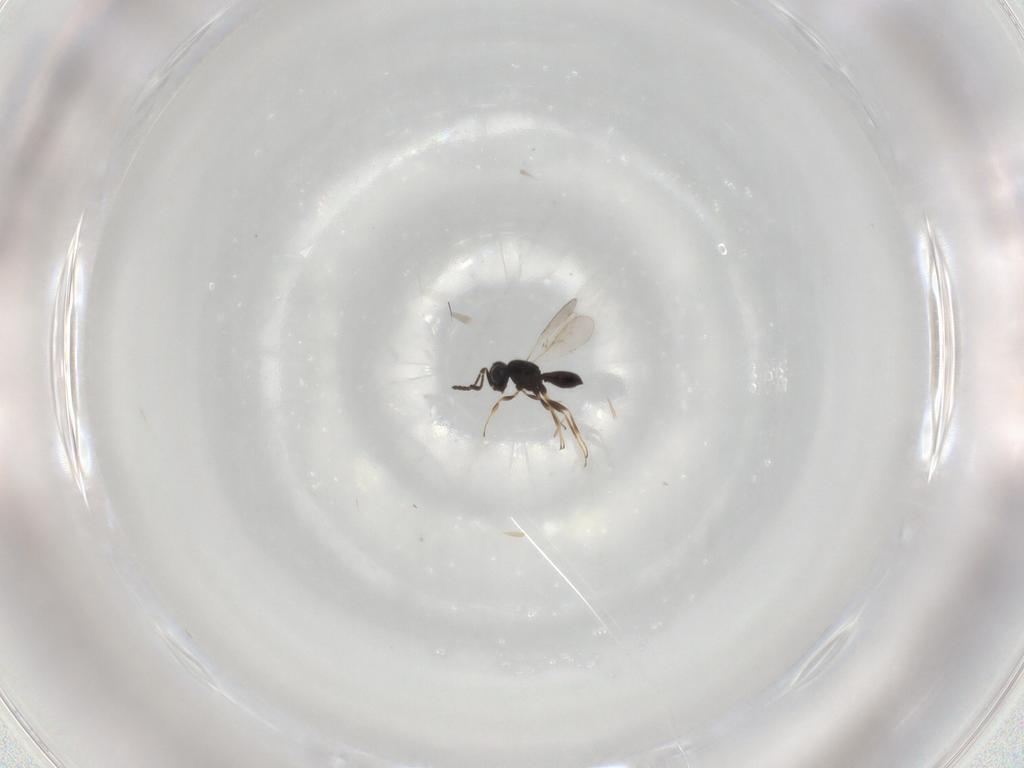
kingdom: Animalia
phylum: Arthropoda
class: Insecta
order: Hymenoptera
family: Scelionidae
